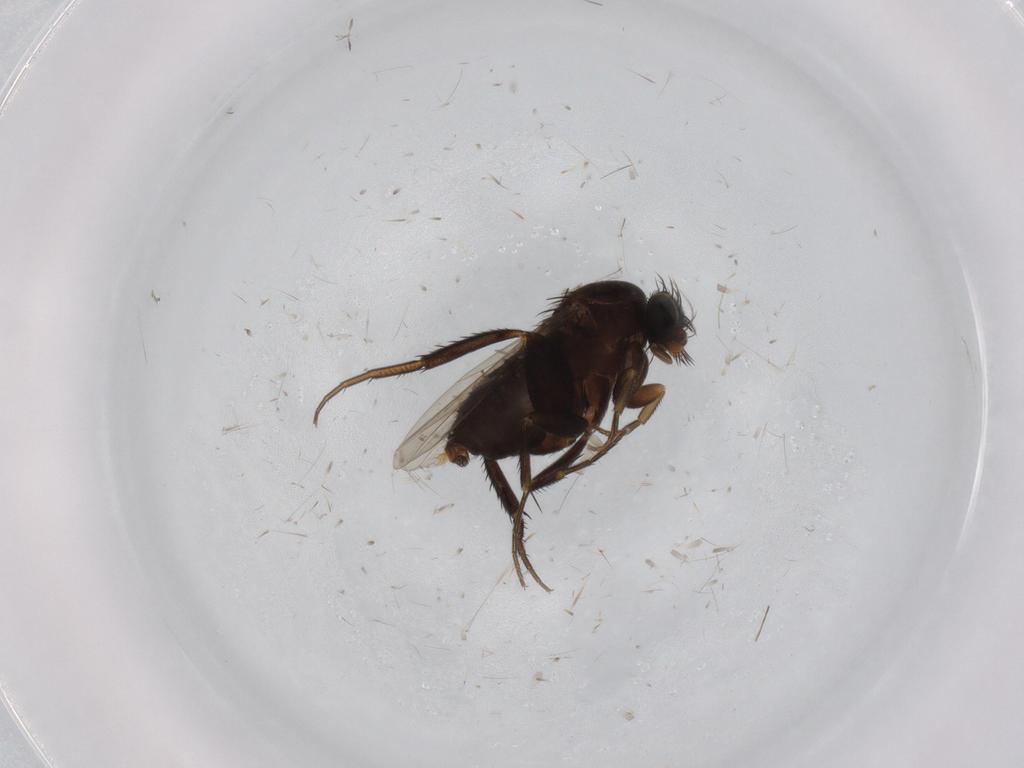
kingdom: Animalia
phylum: Arthropoda
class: Insecta
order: Diptera
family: Phoridae
